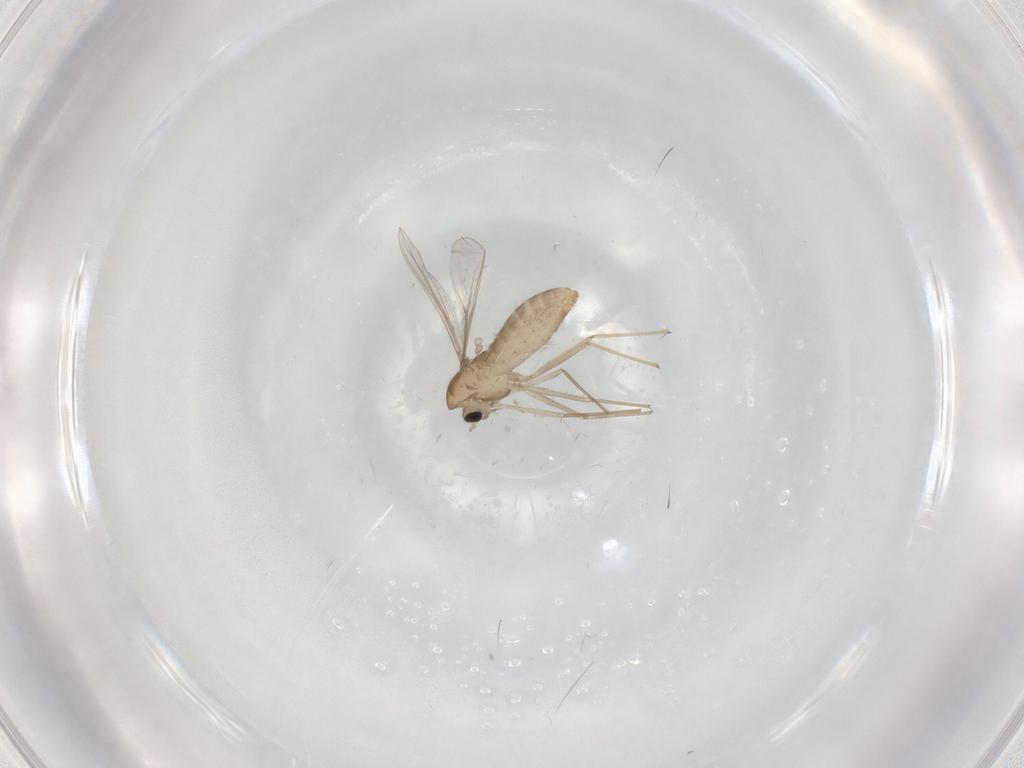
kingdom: Animalia
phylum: Arthropoda
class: Insecta
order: Diptera
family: Chironomidae
